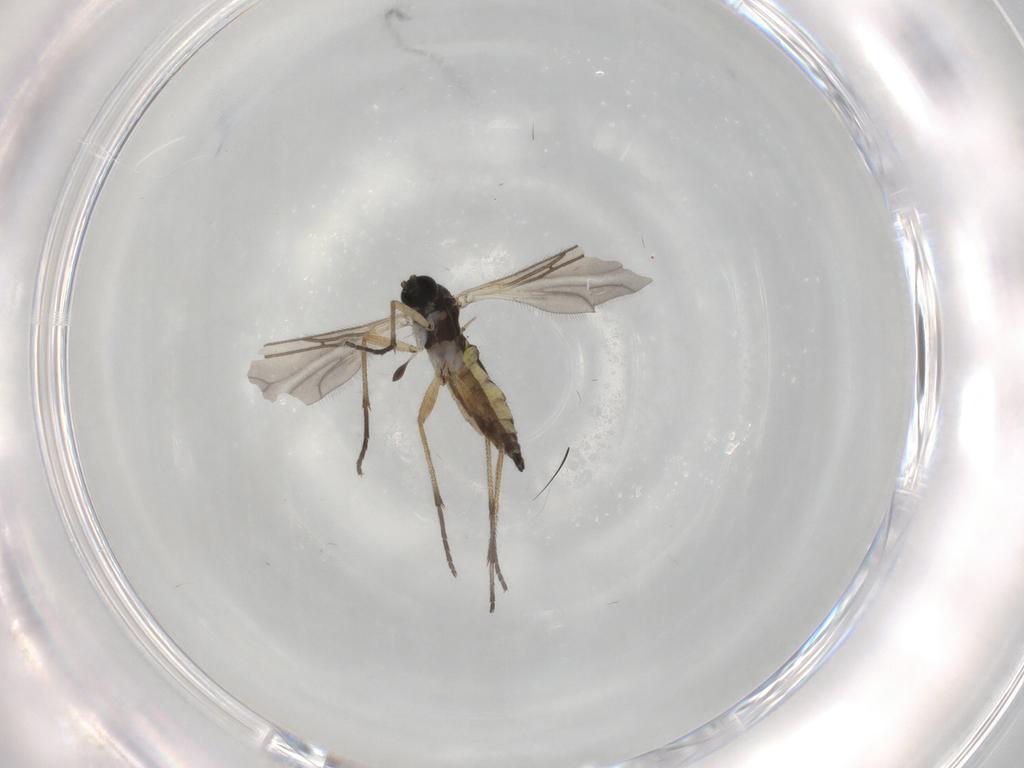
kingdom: Animalia
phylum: Arthropoda
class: Insecta
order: Diptera
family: Sciaridae
